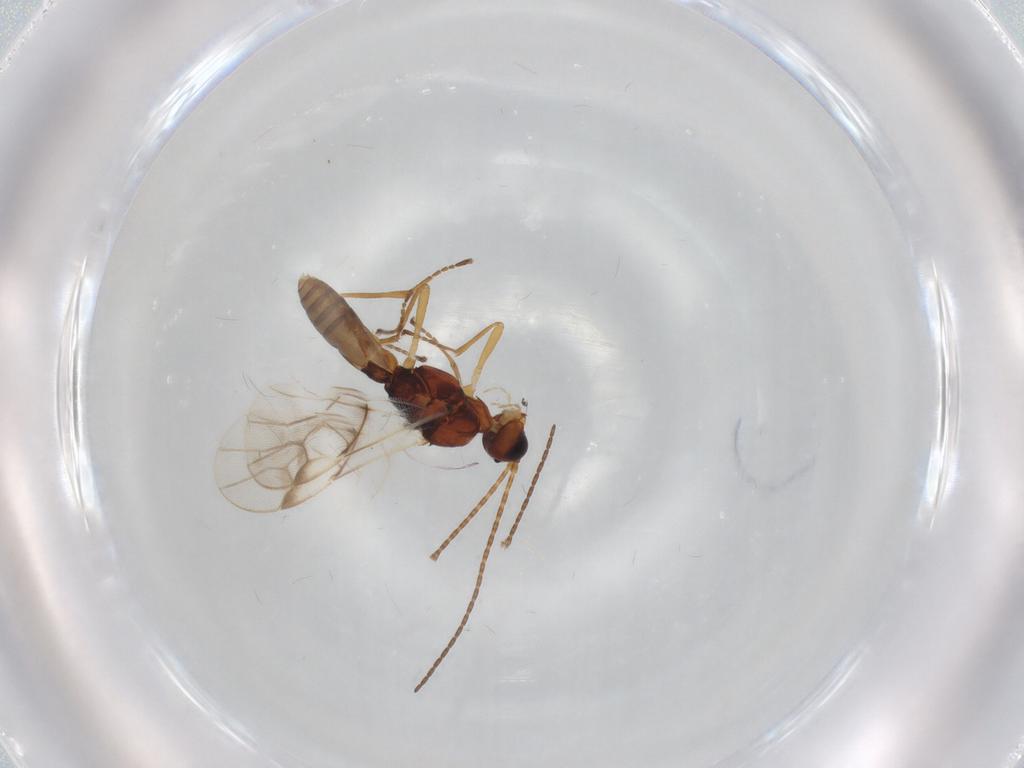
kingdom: Animalia
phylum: Arthropoda
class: Insecta
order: Hymenoptera
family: Braconidae
